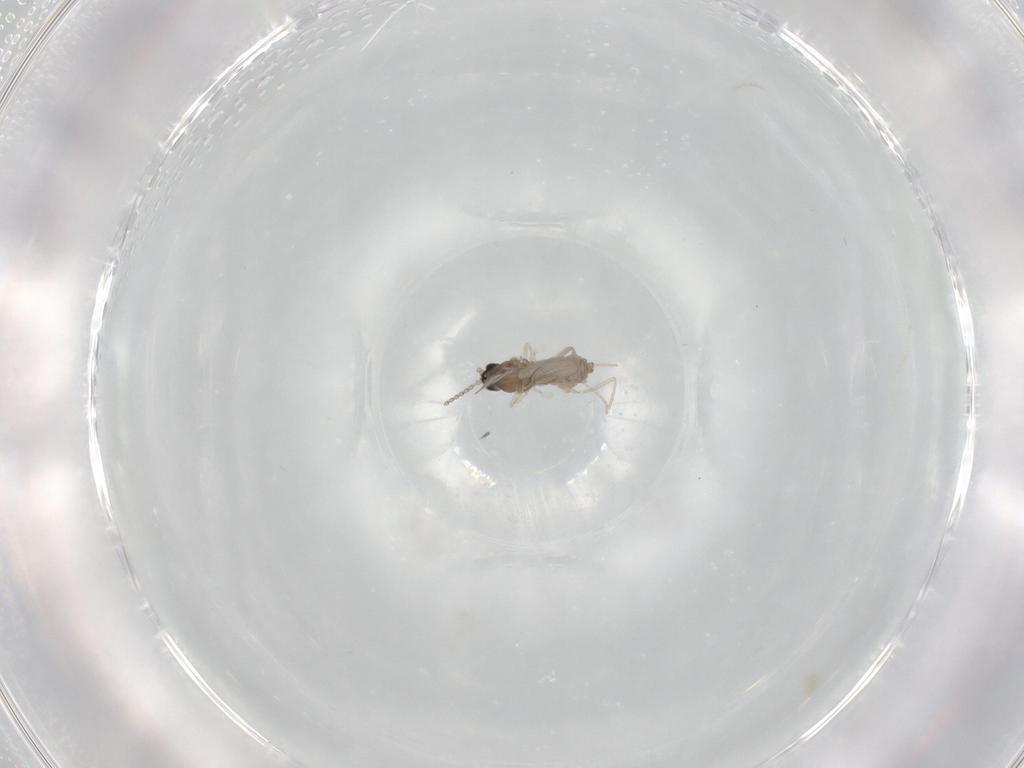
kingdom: Animalia
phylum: Arthropoda
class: Insecta
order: Diptera
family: Cecidomyiidae
